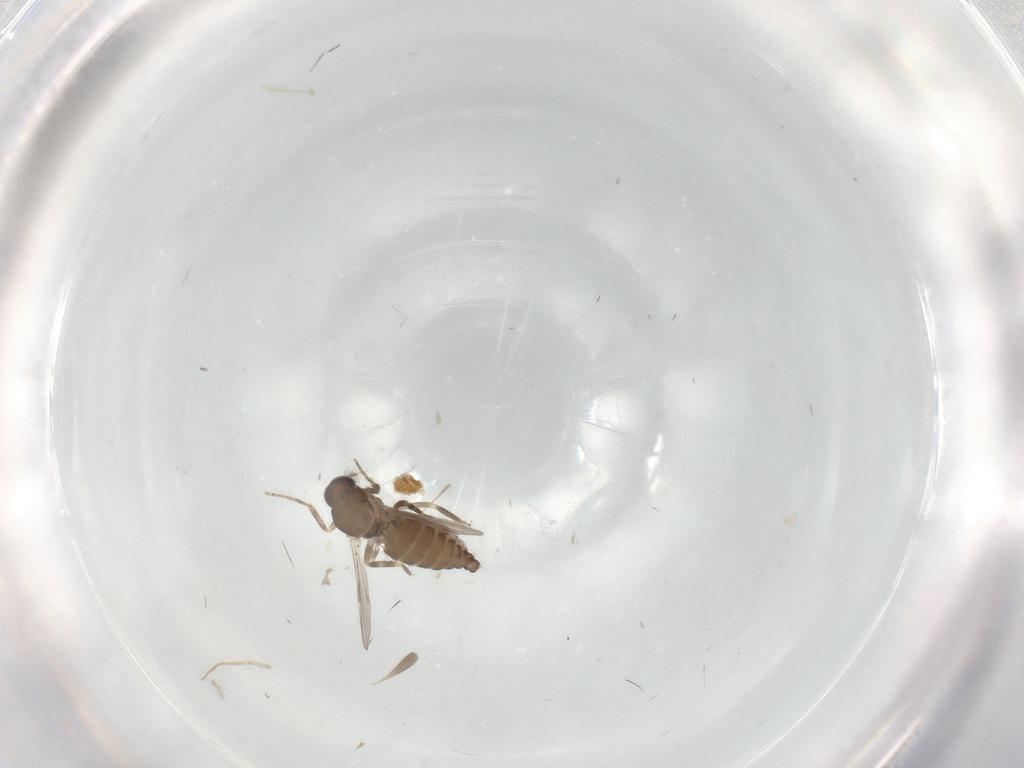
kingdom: Animalia
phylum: Arthropoda
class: Insecta
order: Diptera
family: Ceratopogonidae
